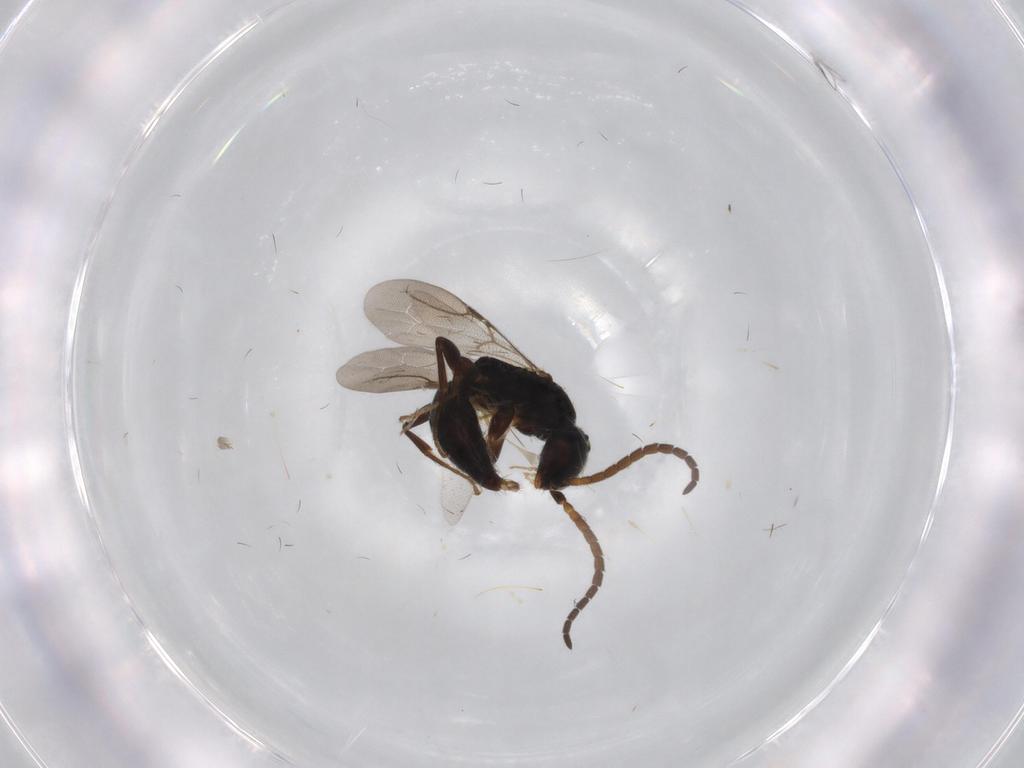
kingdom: Animalia
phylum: Arthropoda
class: Insecta
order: Hymenoptera
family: Bethylidae
